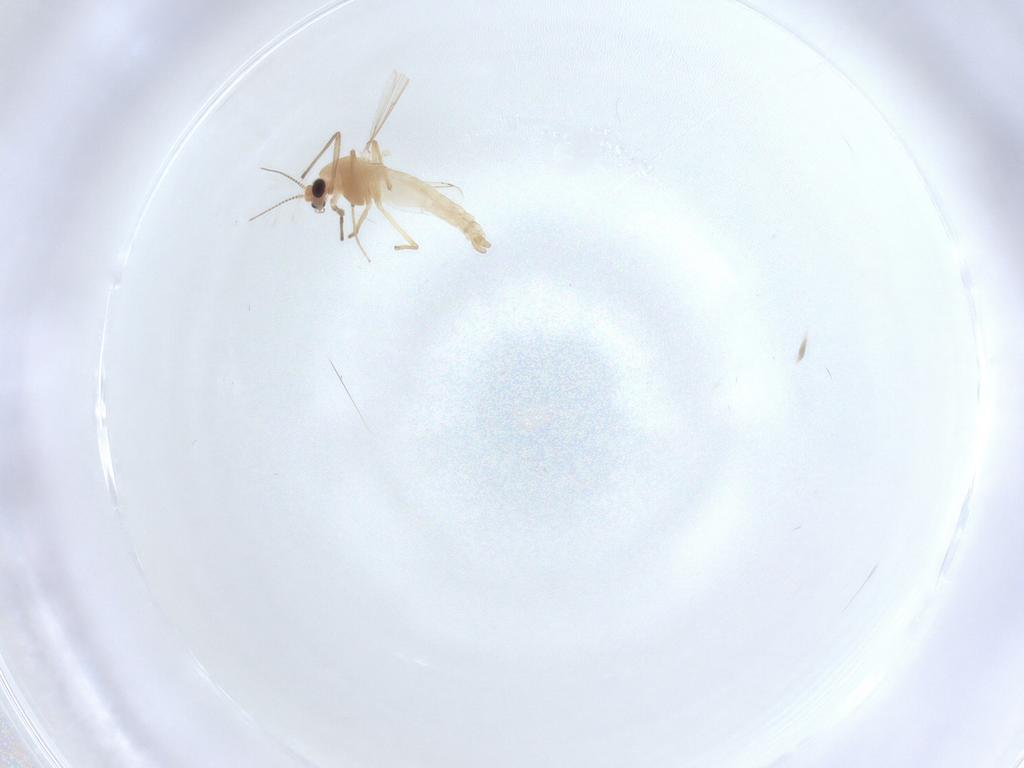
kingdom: Animalia
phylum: Arthropoda
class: Insecta
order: Diptera
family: Chironomidae
